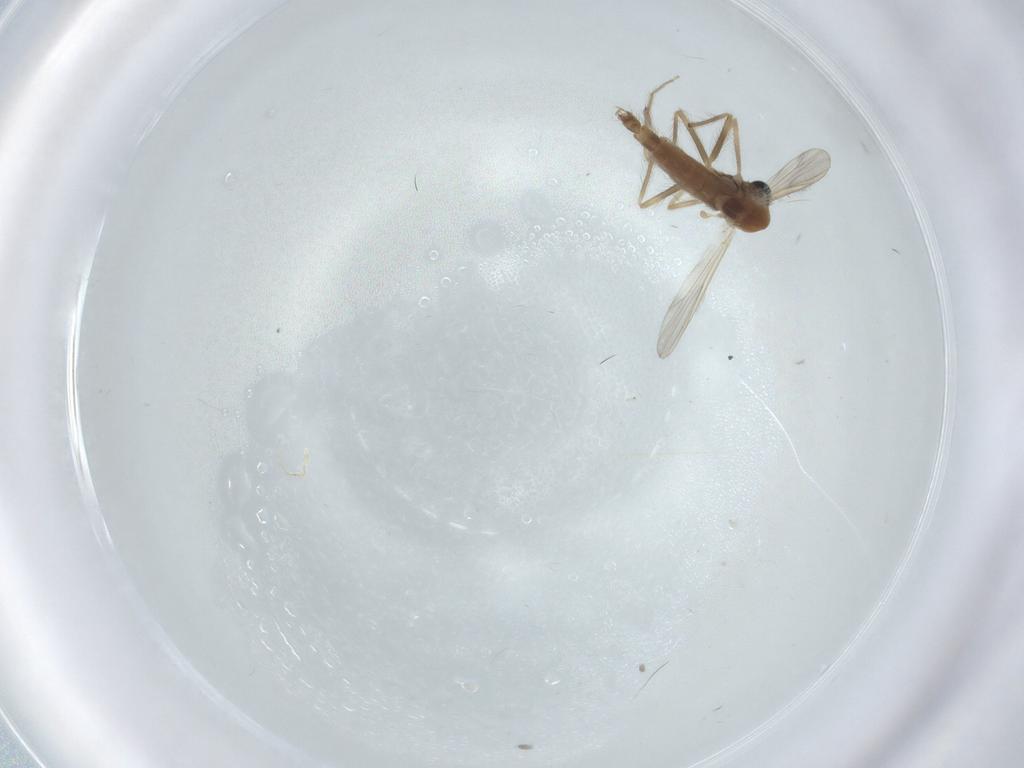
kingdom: Animalia
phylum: Arthropoda
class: Insecta
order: Diptera
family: Chironomidae
